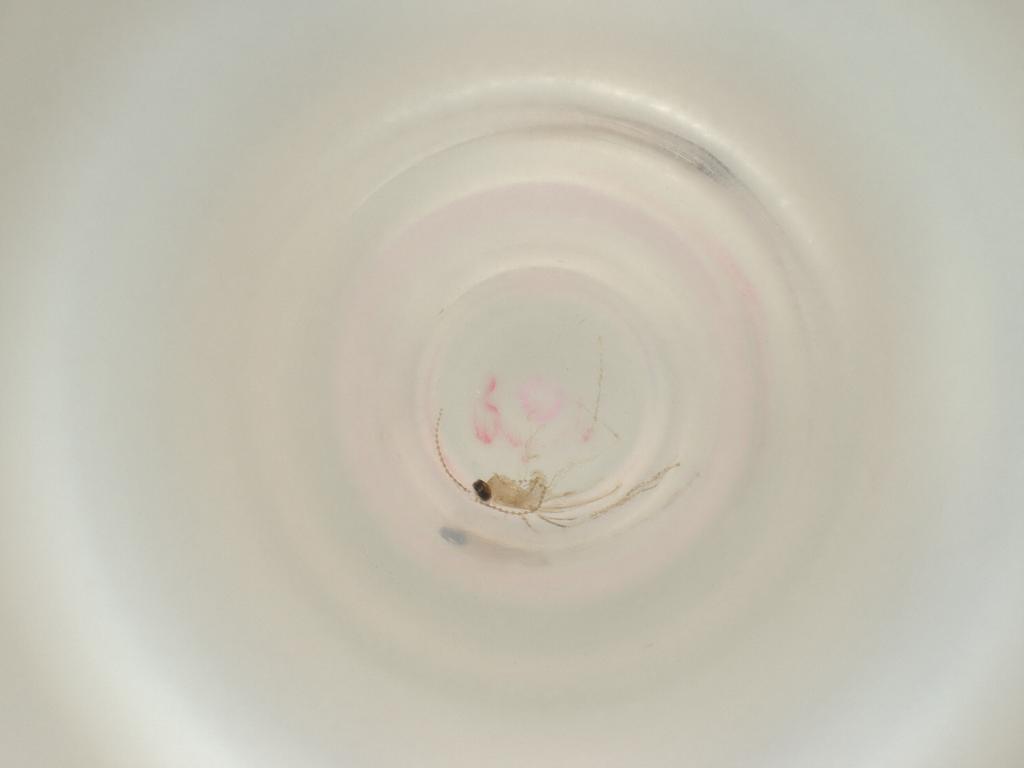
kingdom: Animalia
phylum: Arthropoda
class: Insecta
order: Diptera
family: Cecidomyiidae
